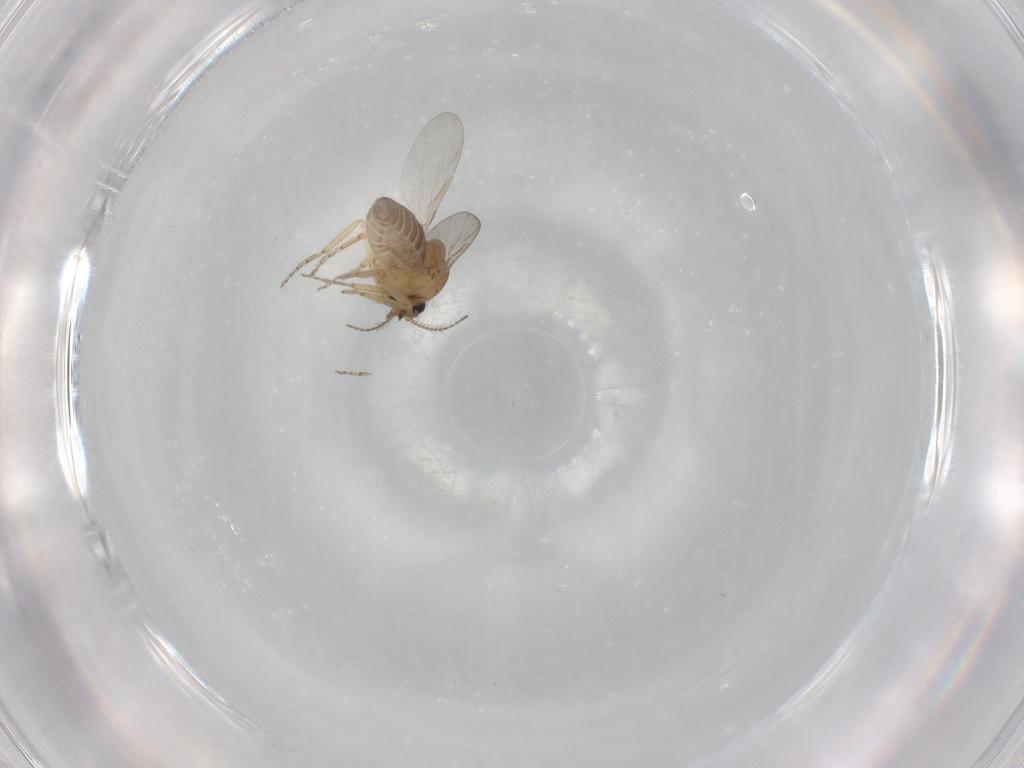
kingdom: Animalia
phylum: Arthropoda
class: Insecta
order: Diptera
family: Ceratopogonidae
